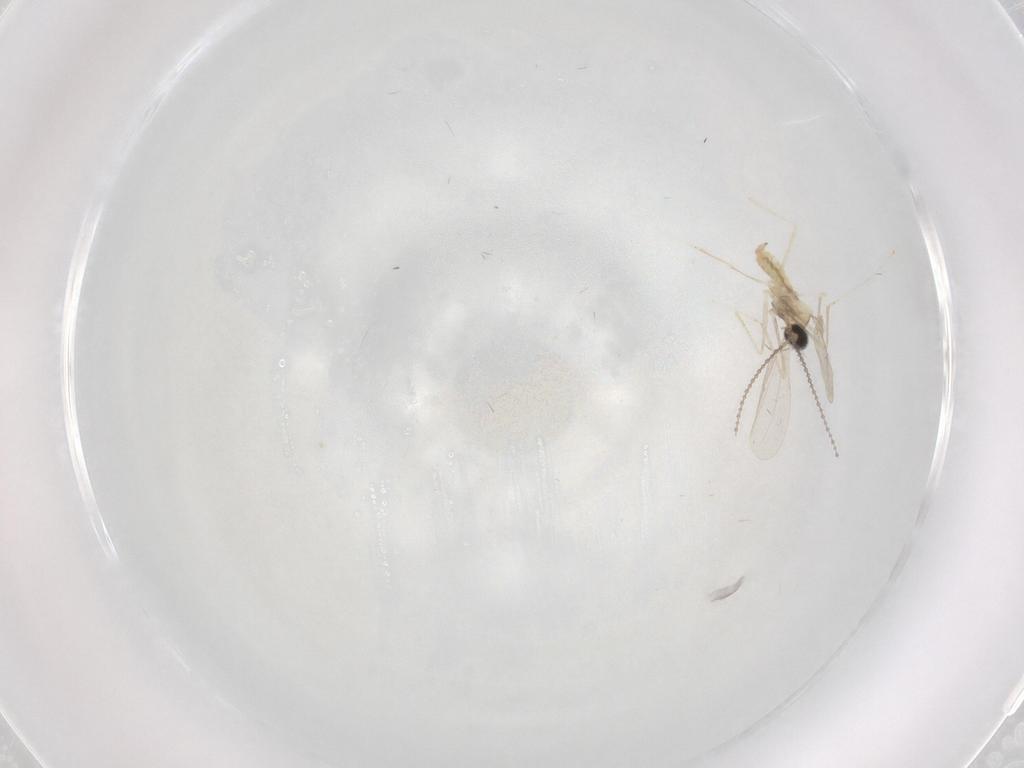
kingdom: Animalia
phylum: Arthropoda
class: Insecta
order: Diptera
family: Cecidomyiidae
